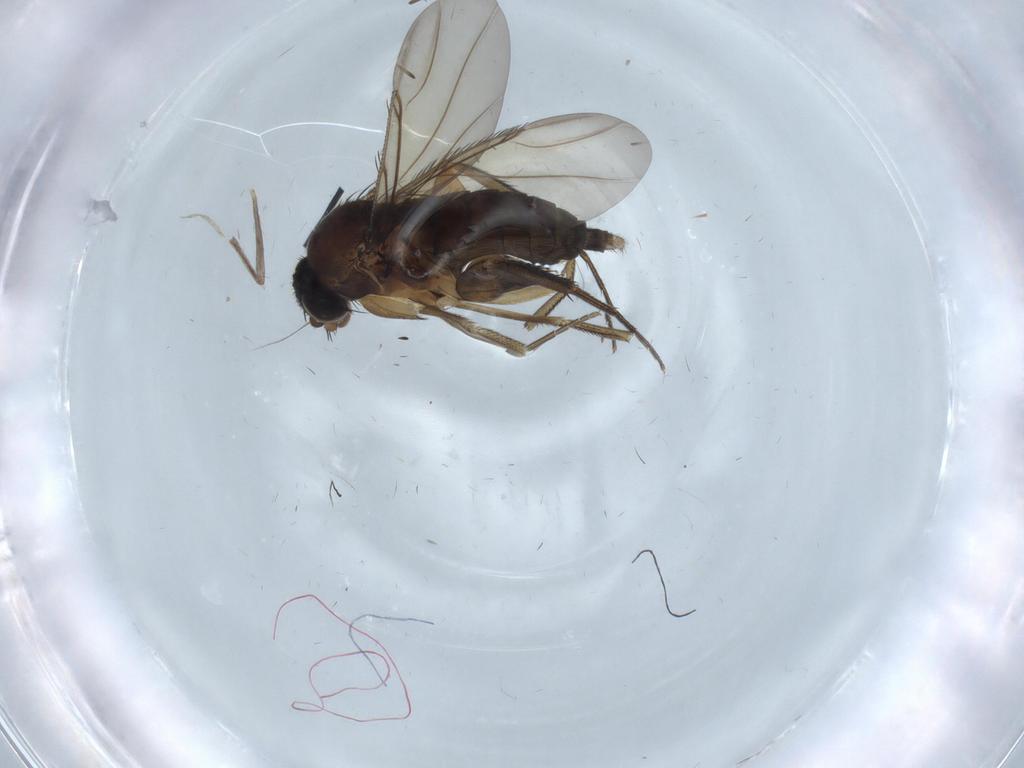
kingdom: Animalia
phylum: Arthropoda
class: Insecta
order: Diptera
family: Phoridae
